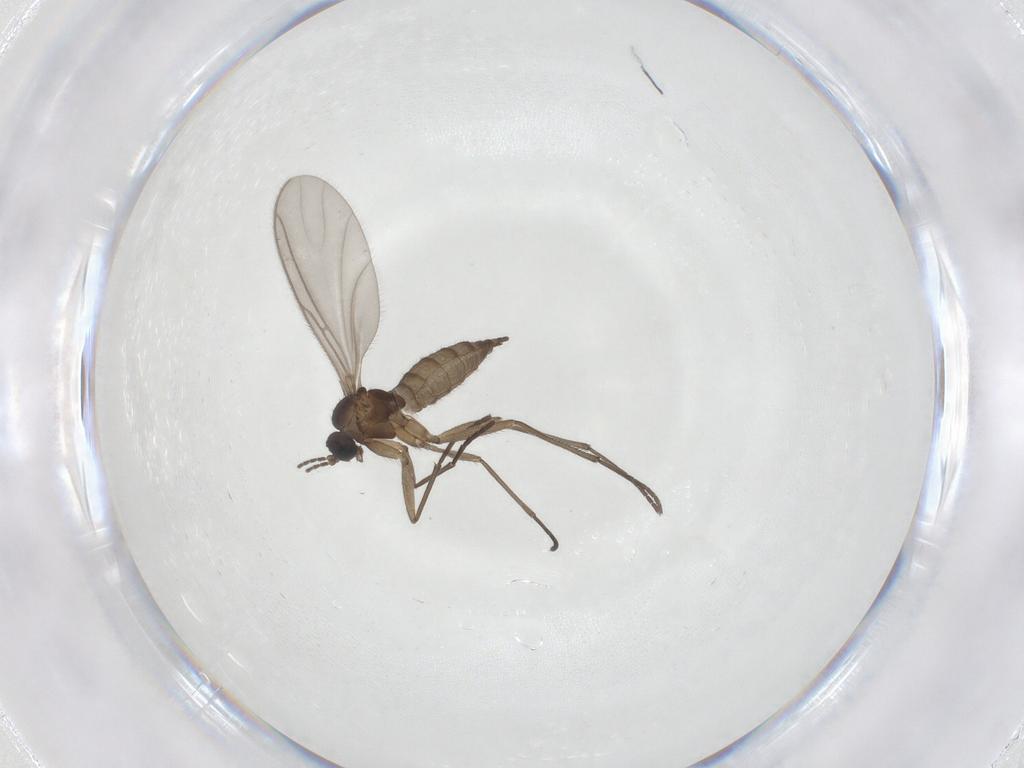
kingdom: Animalia
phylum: Arthropoda
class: Insecta
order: Diptera
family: Sciaridae
